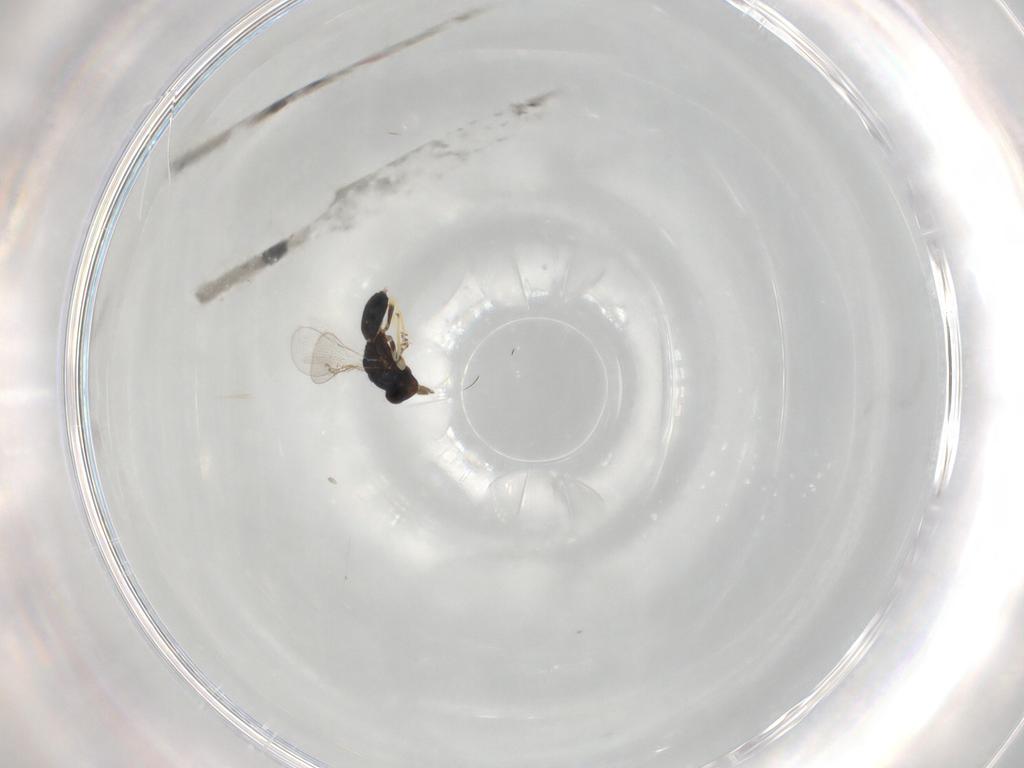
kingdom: Animalia
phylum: Arthropoda
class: Insecta
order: Hymenoptera
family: Eulophidae
